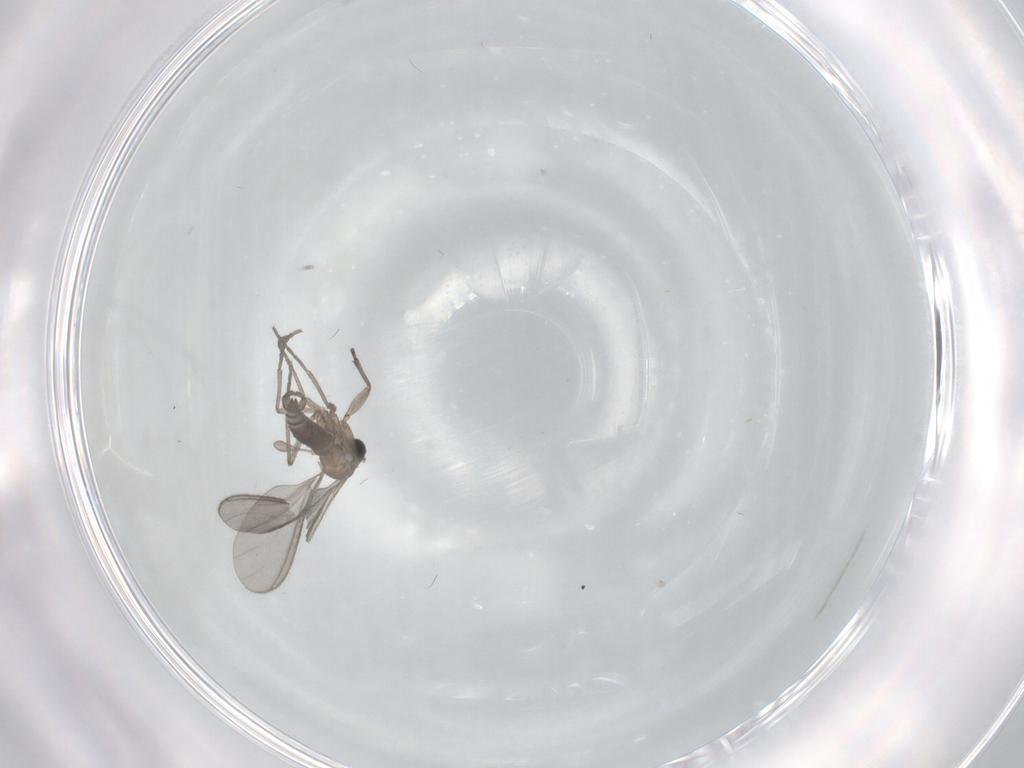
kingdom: Animalia
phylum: Arthropoda
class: Insecta
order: Diptera
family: Sciaridae
